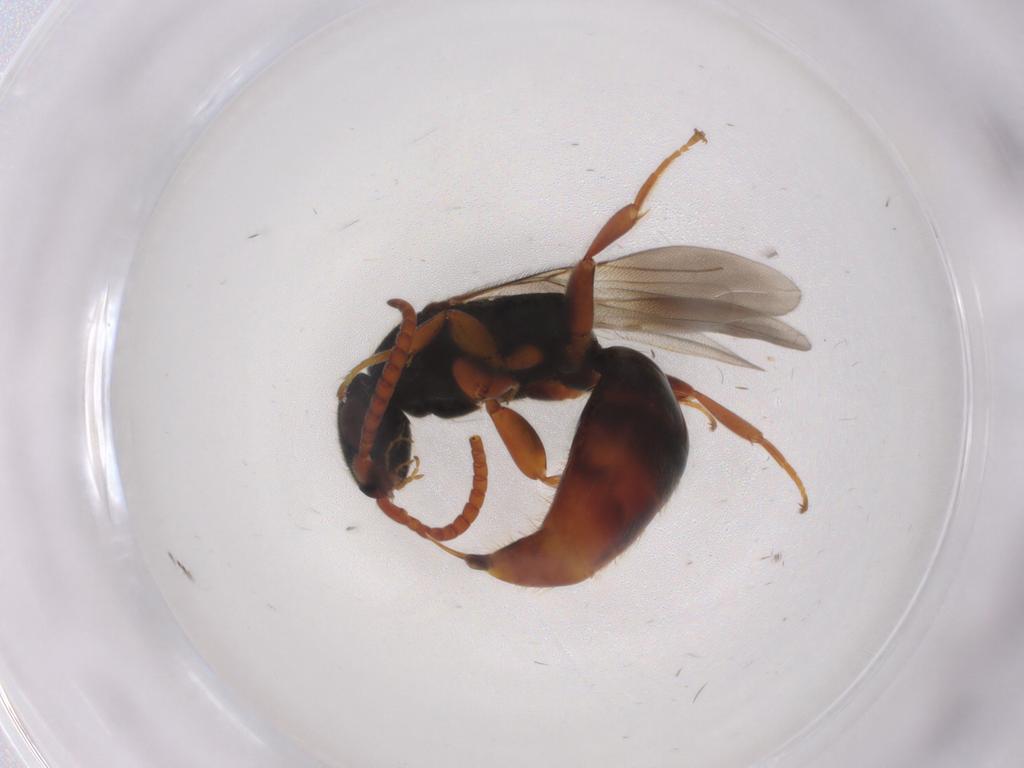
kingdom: Animalia
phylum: Arthropoda
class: Insecta
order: Hymenoptera
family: Bethylidae
